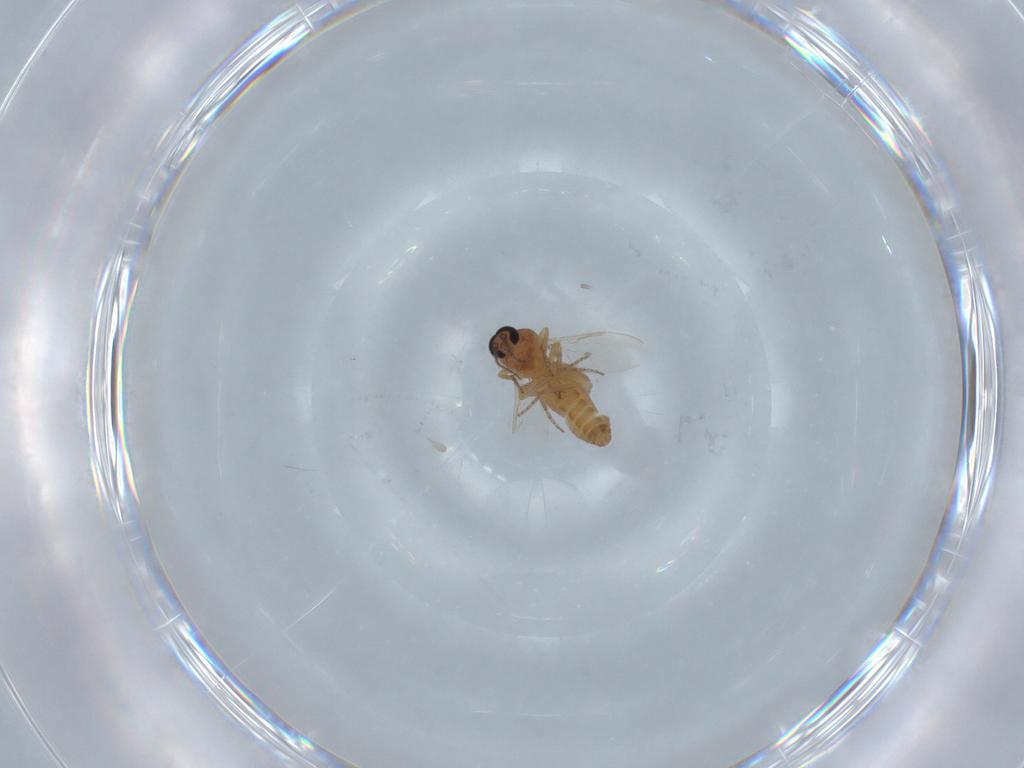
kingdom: Animalia
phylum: Arthropoda
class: Insecta
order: Diptera
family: Ceratopogonidae
